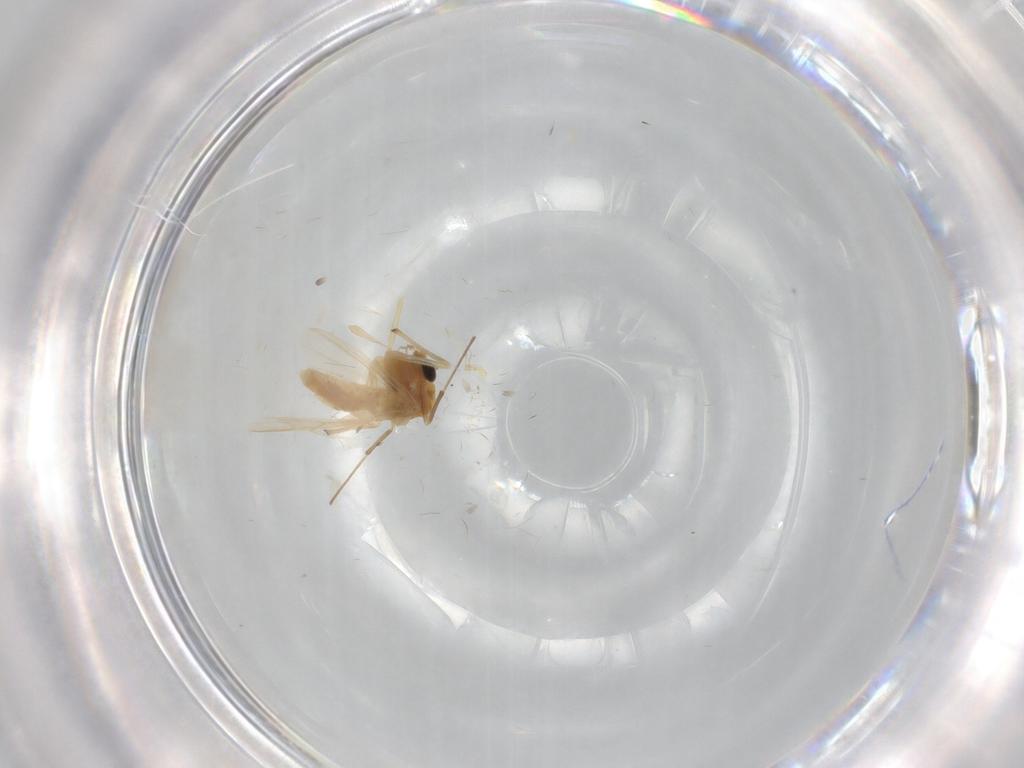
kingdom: Animalia
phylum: Arthropoda
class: Insecta
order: Diptera
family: Chironomidae
